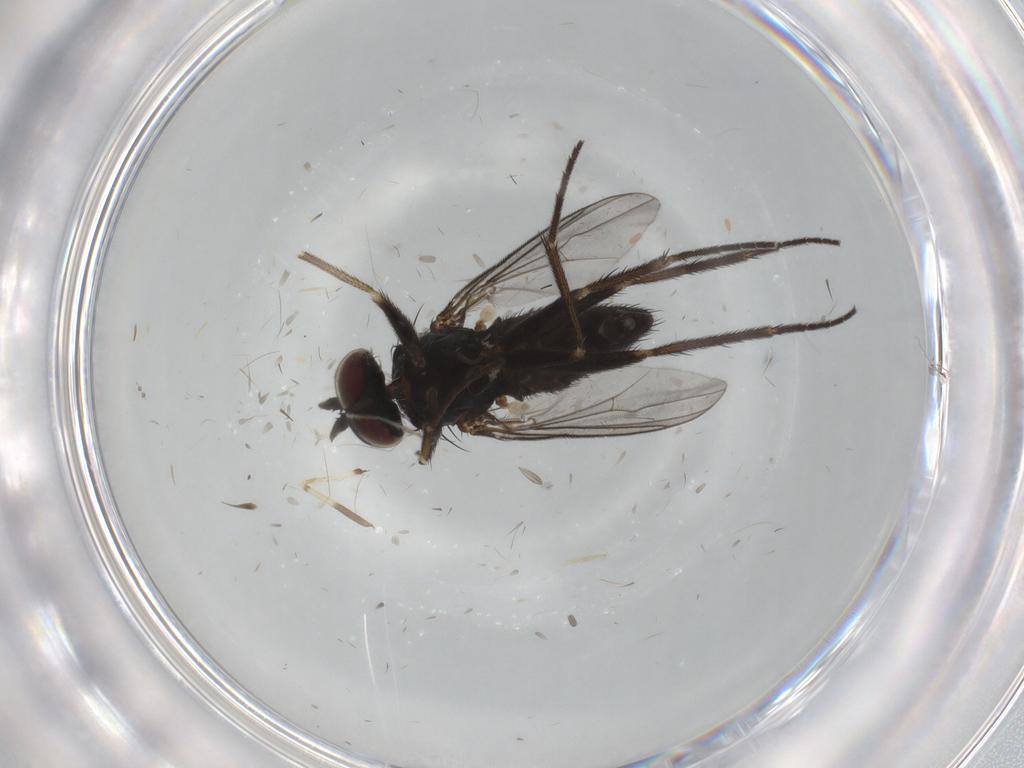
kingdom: Animalia
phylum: Arthropoda
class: Insecta
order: Diptera
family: Dolichopodidae
